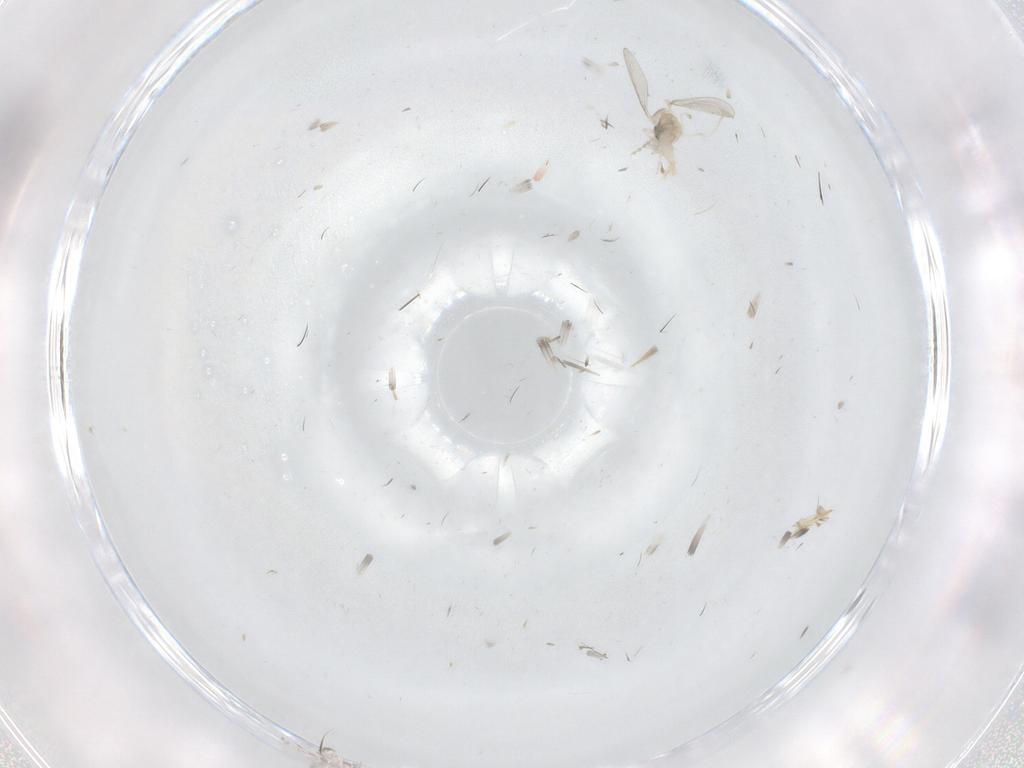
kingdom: Animalia
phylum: Arthropoda
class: Insecta
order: Diptera
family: Cecidomyiidae
